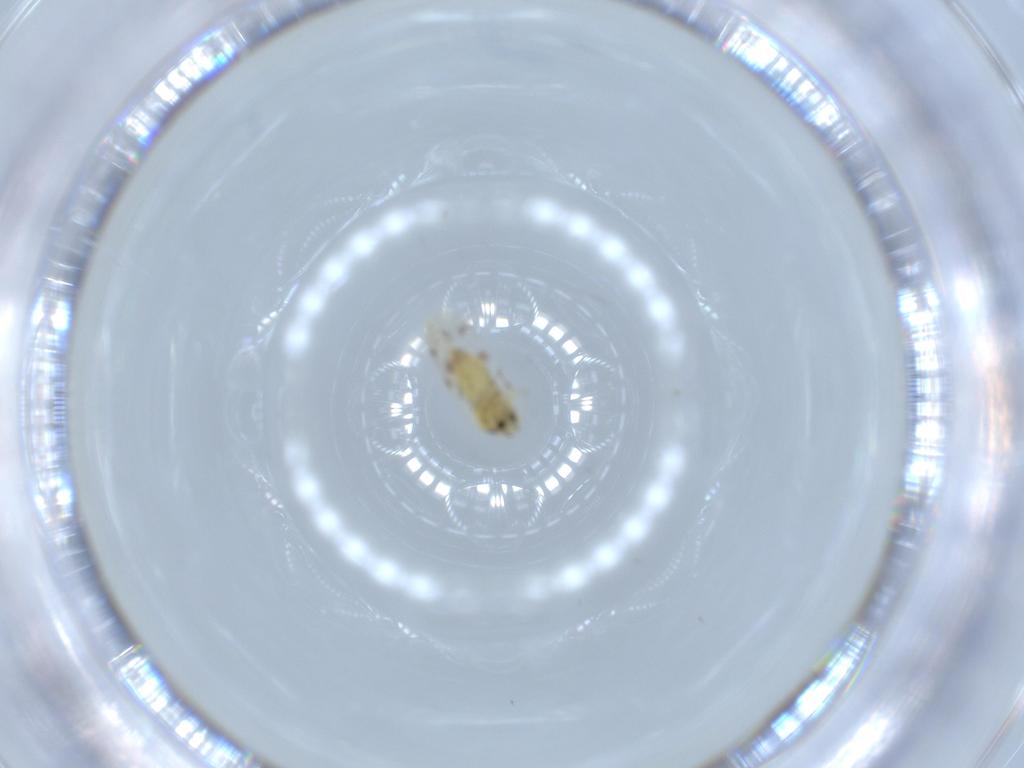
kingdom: Animalia
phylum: Arthropoda
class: Insecta
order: Hemiptera
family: Aleyrodidae
